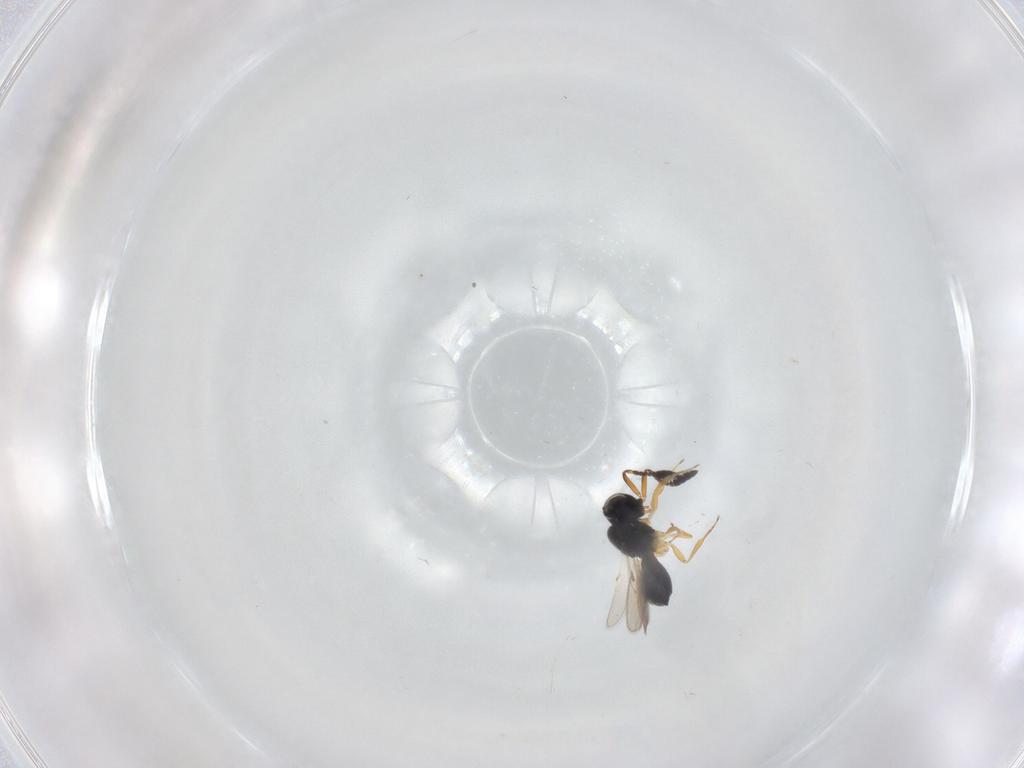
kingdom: Animalia
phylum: Arthropoda
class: Insecta
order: Hymenoptera
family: Scelionidae
